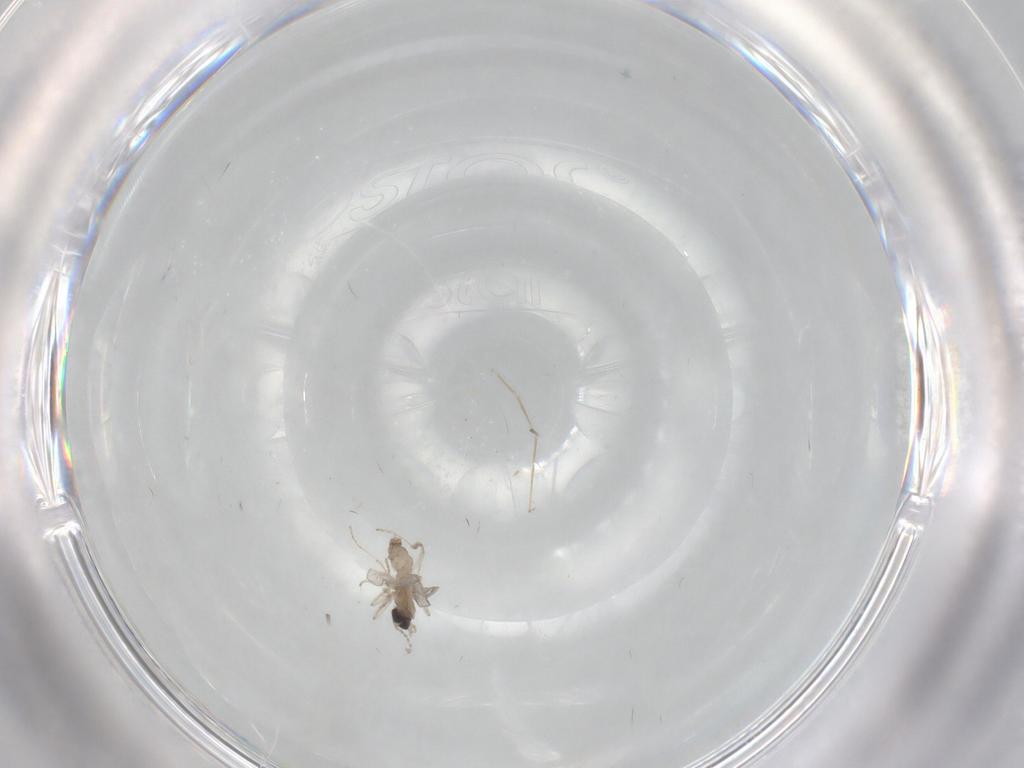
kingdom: Animalia
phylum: Arthropoda
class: Insecta
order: Diptera
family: Cecidomyiidae
